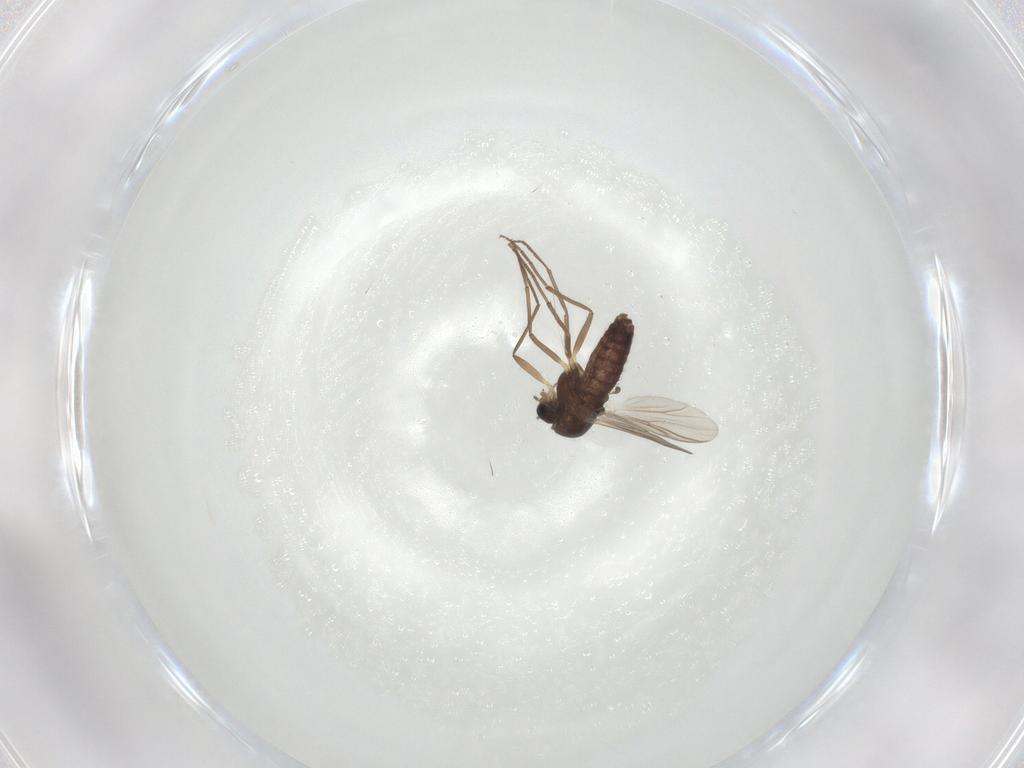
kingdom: Animalia
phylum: Arthropoda
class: Insecta
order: Diptera
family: Chironomidae
